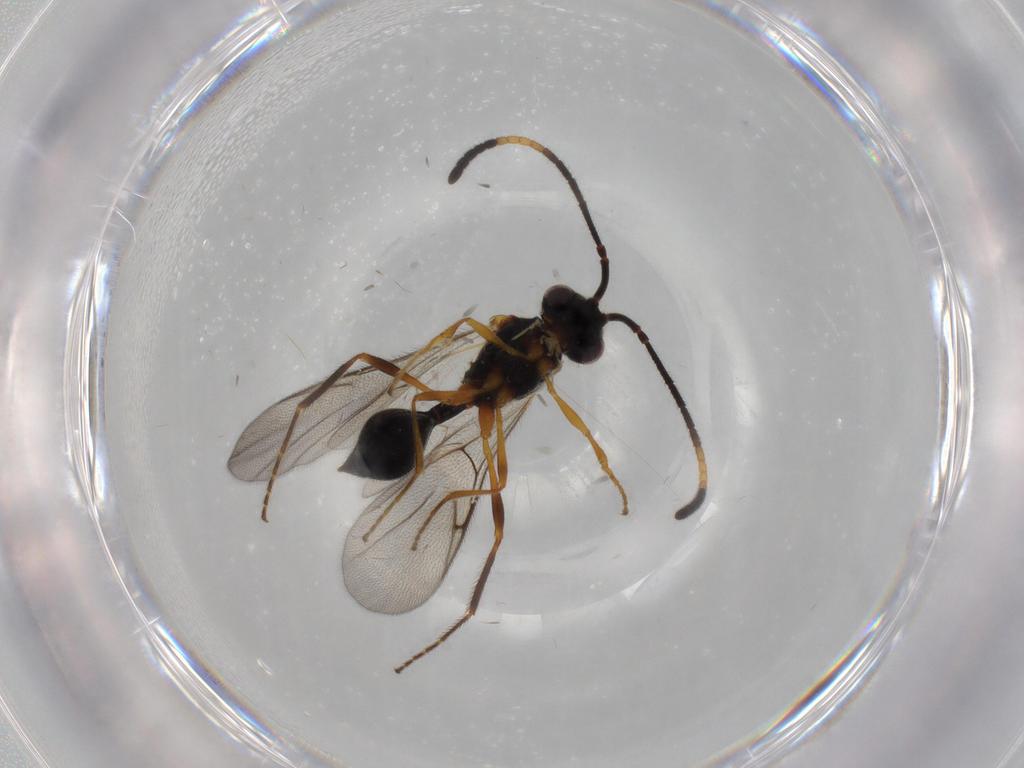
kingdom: Animalia
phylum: Arthropoda
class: Insecta
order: Hymenoptera
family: Diapriidae
